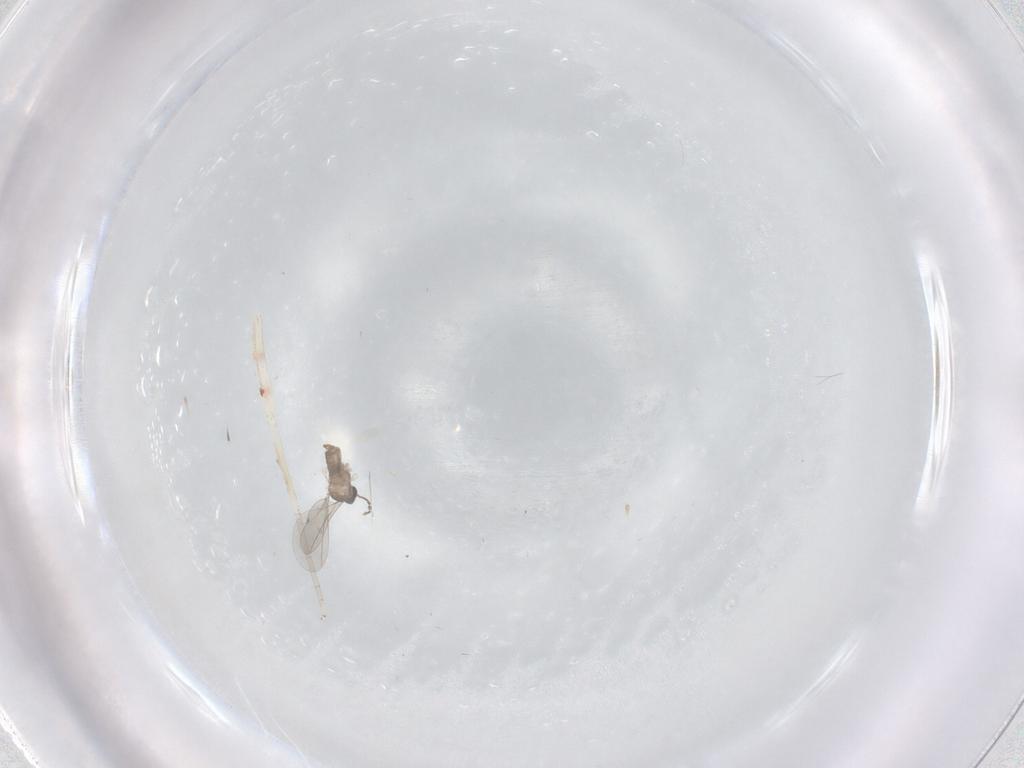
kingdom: Animalia
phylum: Arthropoda
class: Insecta
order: Diptera
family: Cecidomyiidae
